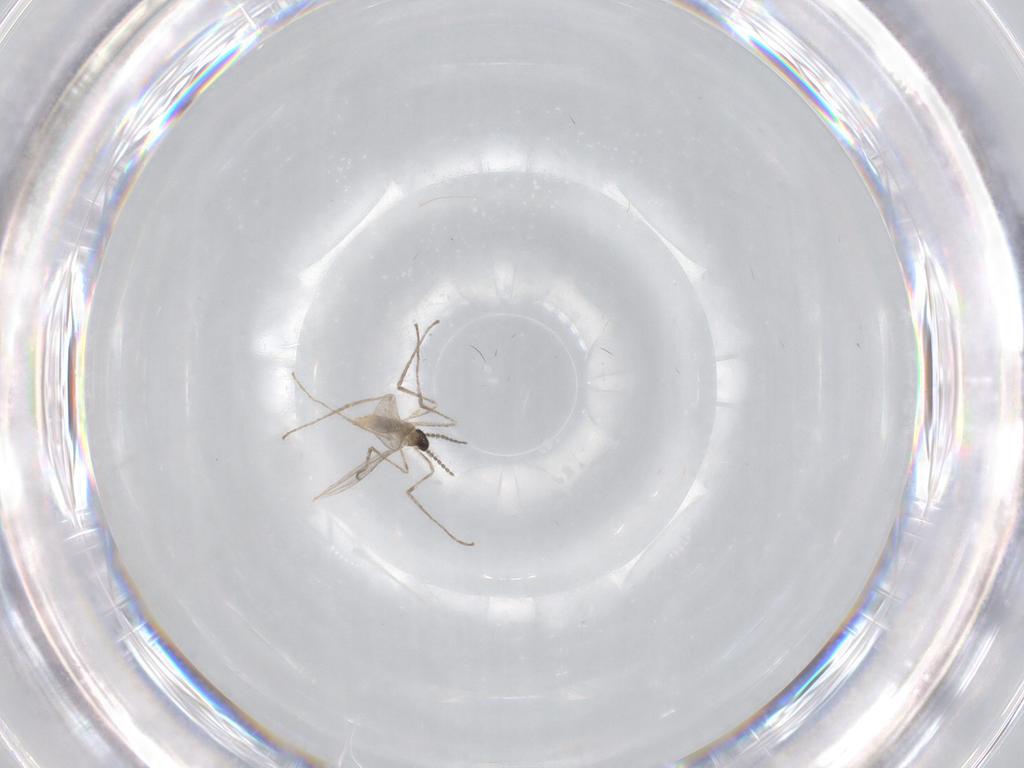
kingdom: Animalia
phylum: Arthropoda
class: Insecta
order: Diptera
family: Cecidomyiidae
